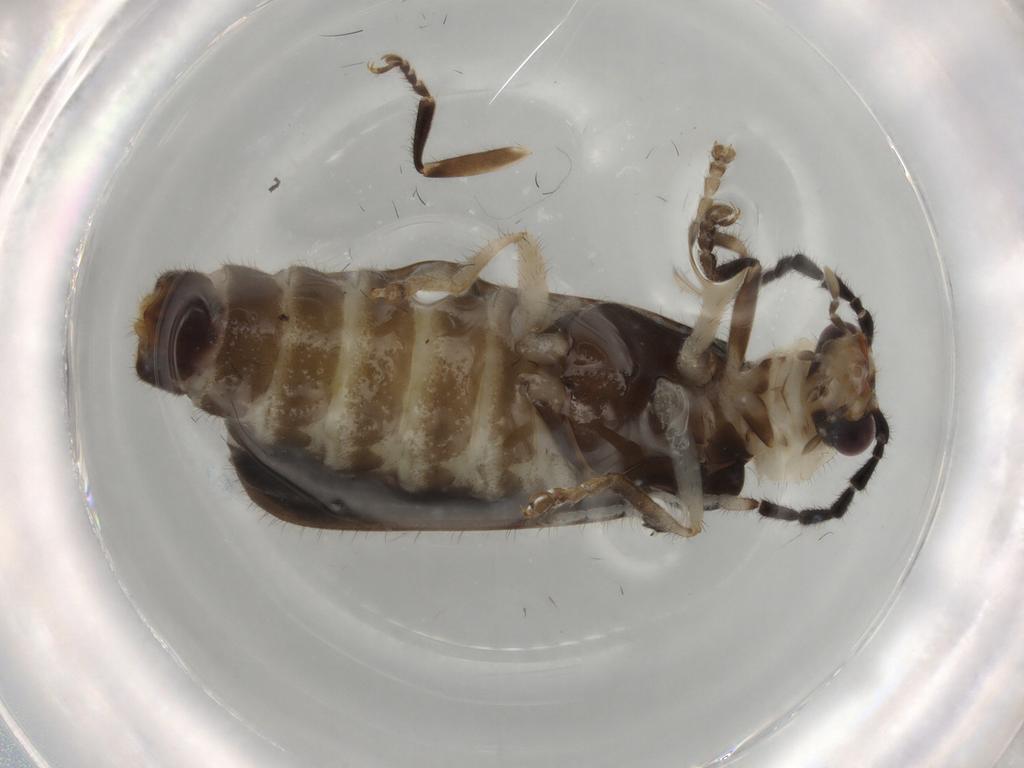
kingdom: Animalia
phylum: Arthropoda
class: Insecta
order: Coleoptera
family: Cantharidae
